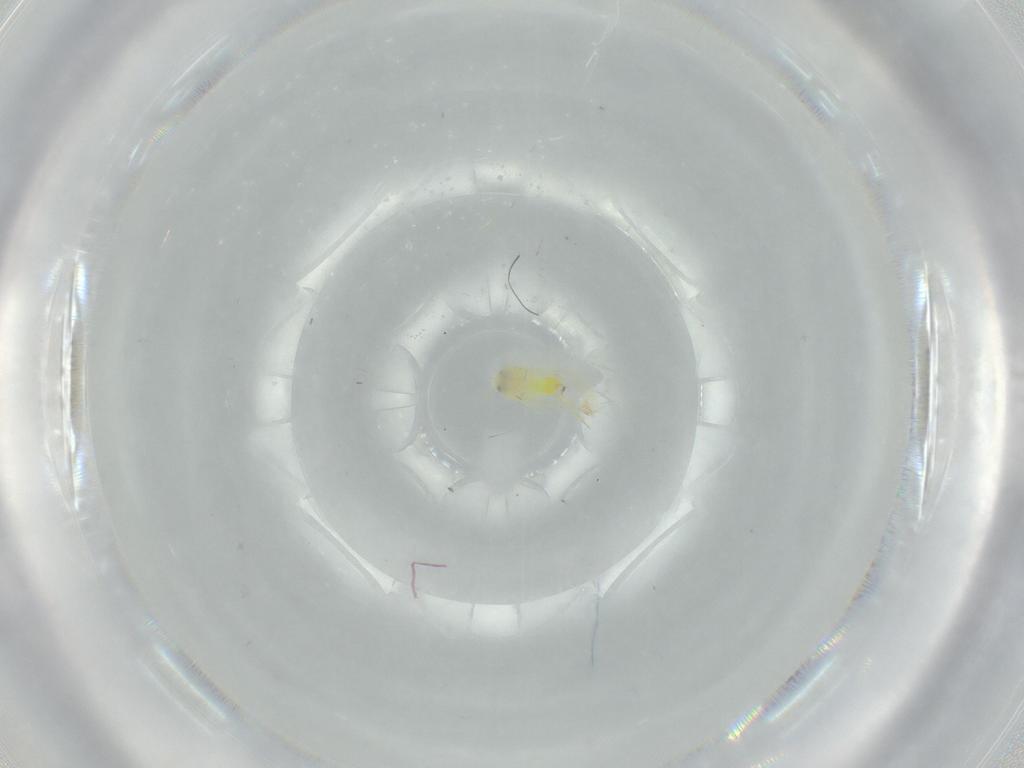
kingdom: Animalia
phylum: Arthropoda
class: Insecta
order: Hemiptera
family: Aleyrodidae
